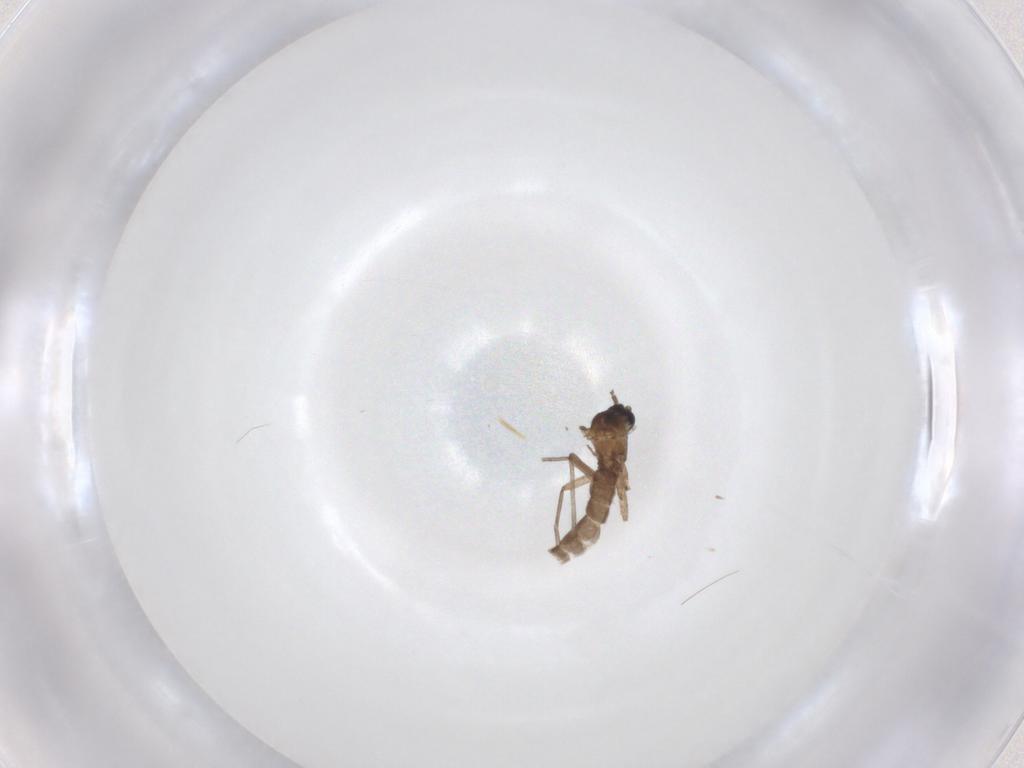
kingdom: Animalia
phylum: Arthropoda
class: Insecta
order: Diptera
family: Sciaridae
